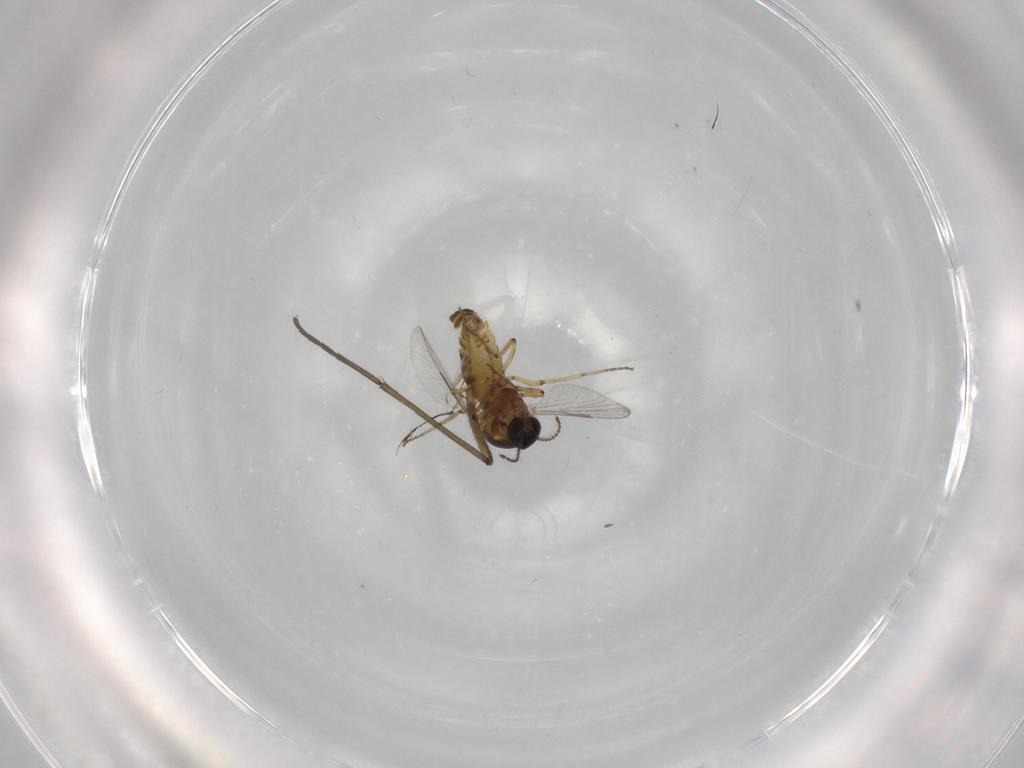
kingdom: Animalia
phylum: Arthropoda
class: Insecta
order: Diptera
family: Ceratopogonidae
